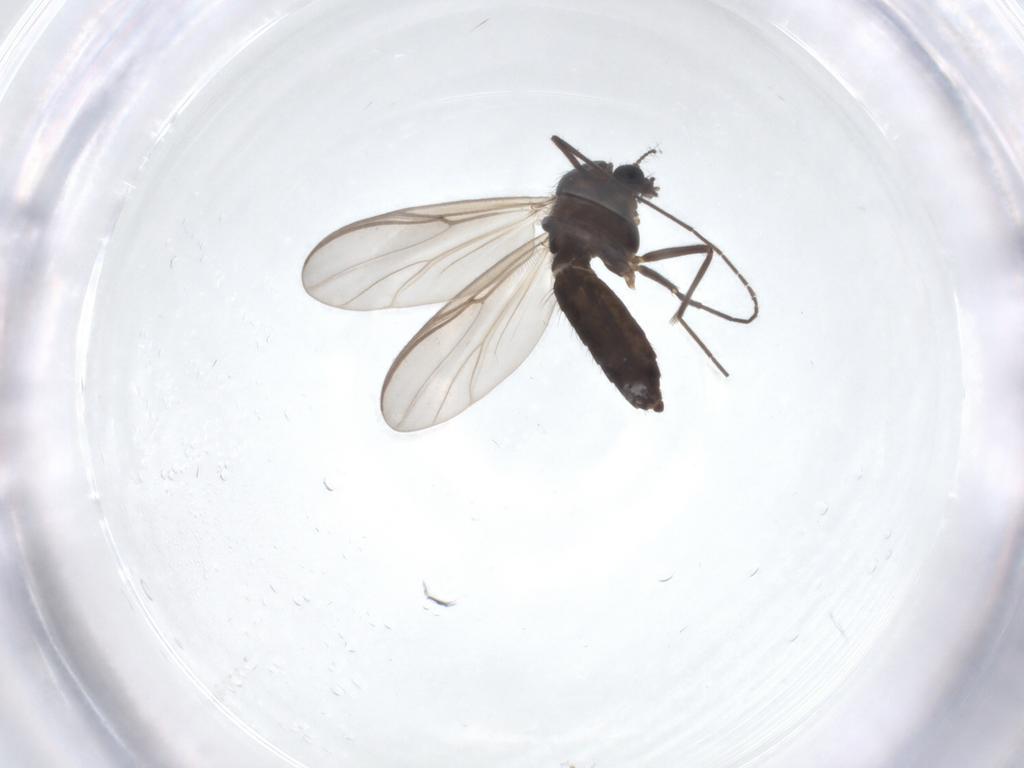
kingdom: Animalia
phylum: Arthropoda
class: Insecta
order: Diptera
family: Chironomidae
